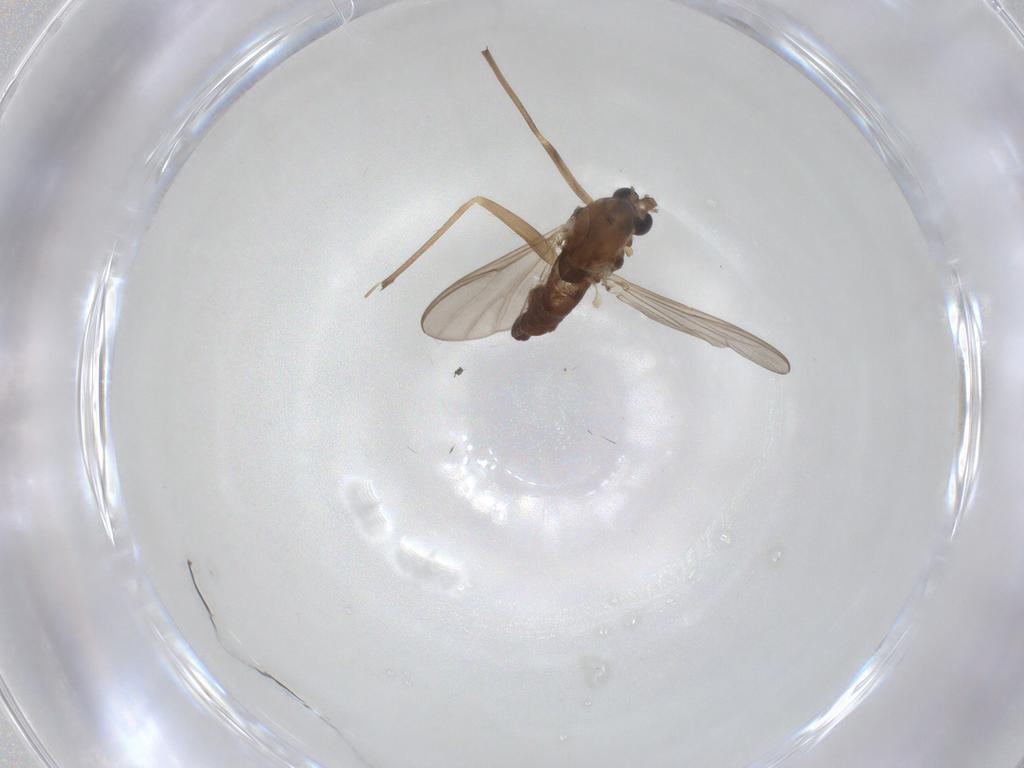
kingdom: Animalia
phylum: Arthropoda
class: Insecta
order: Diptera
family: Chironomidae
